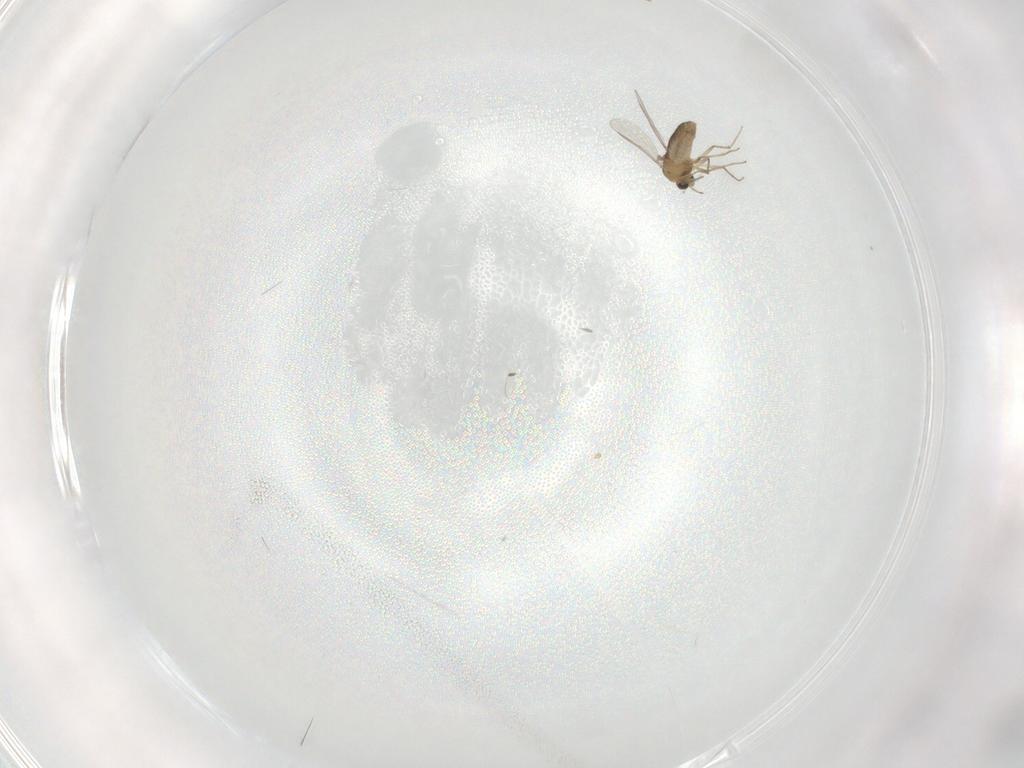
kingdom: Animalia
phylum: Arthropoda
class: Insecta
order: Diptera
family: Chironomidae
